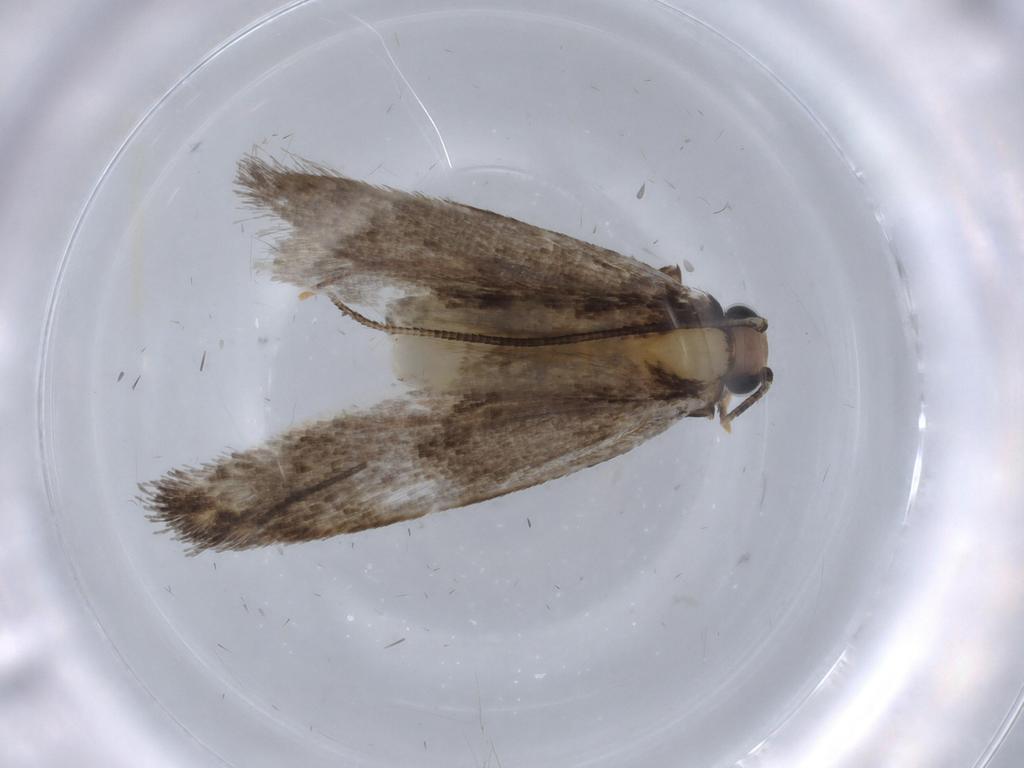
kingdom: Animalia
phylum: Arthropoda
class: Insecta
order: Lepidoptera
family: Tineidae
